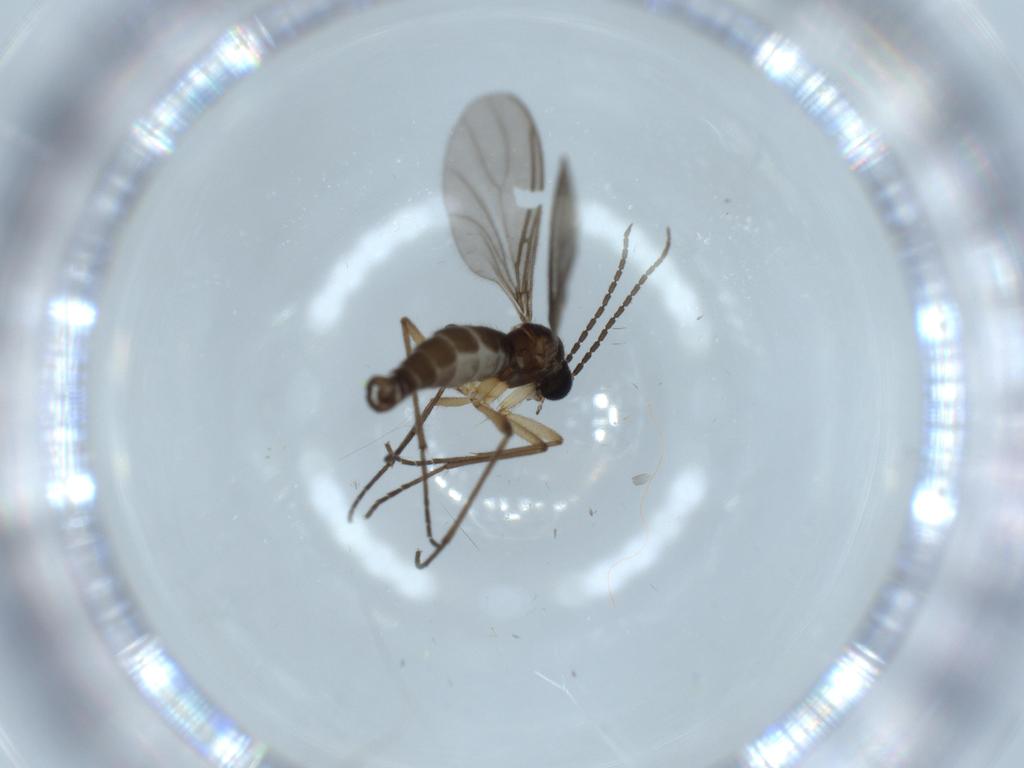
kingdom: Animalia
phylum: Arthropoda
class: Insecta
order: Diptera
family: Sciaridae
